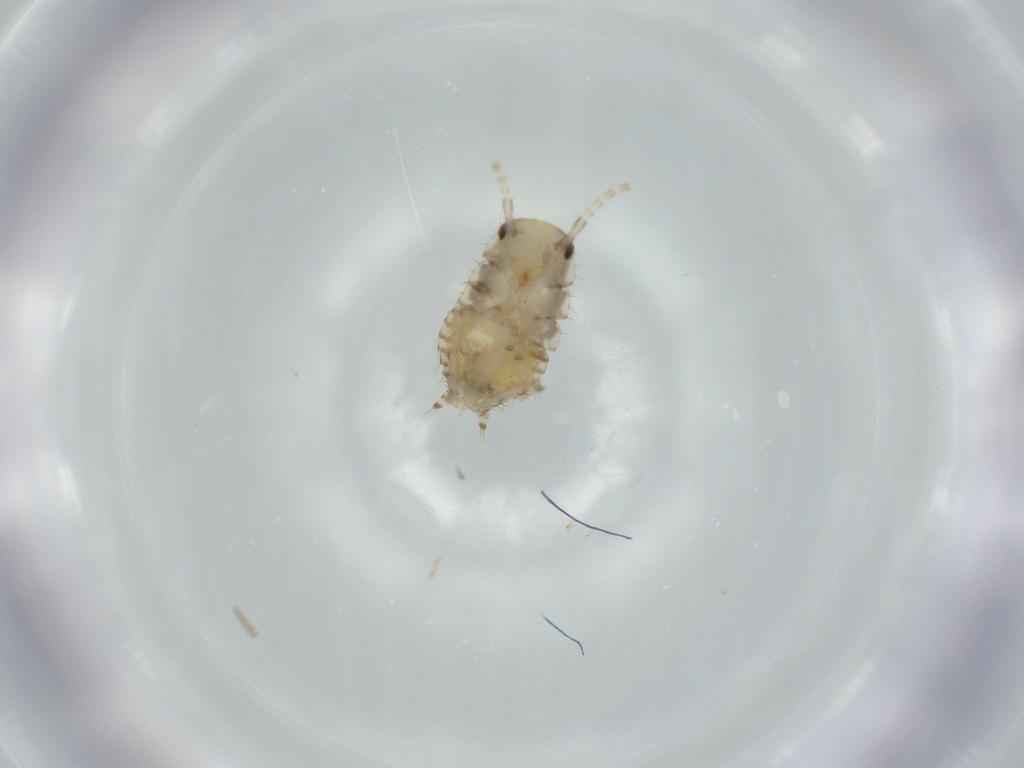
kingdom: Animalia
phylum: Arthropoda
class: Insecta
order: Blattodea
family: Ectobiidae
